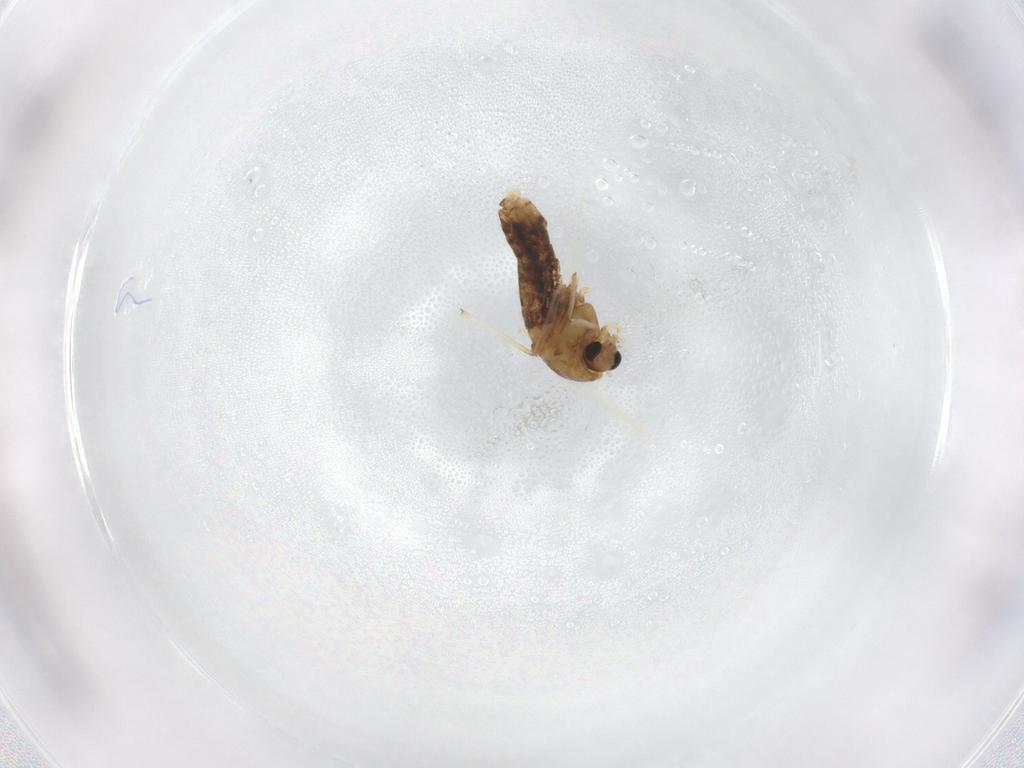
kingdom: Animalia
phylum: Arthropoda
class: Insecta
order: Diptera
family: Chironomidae
